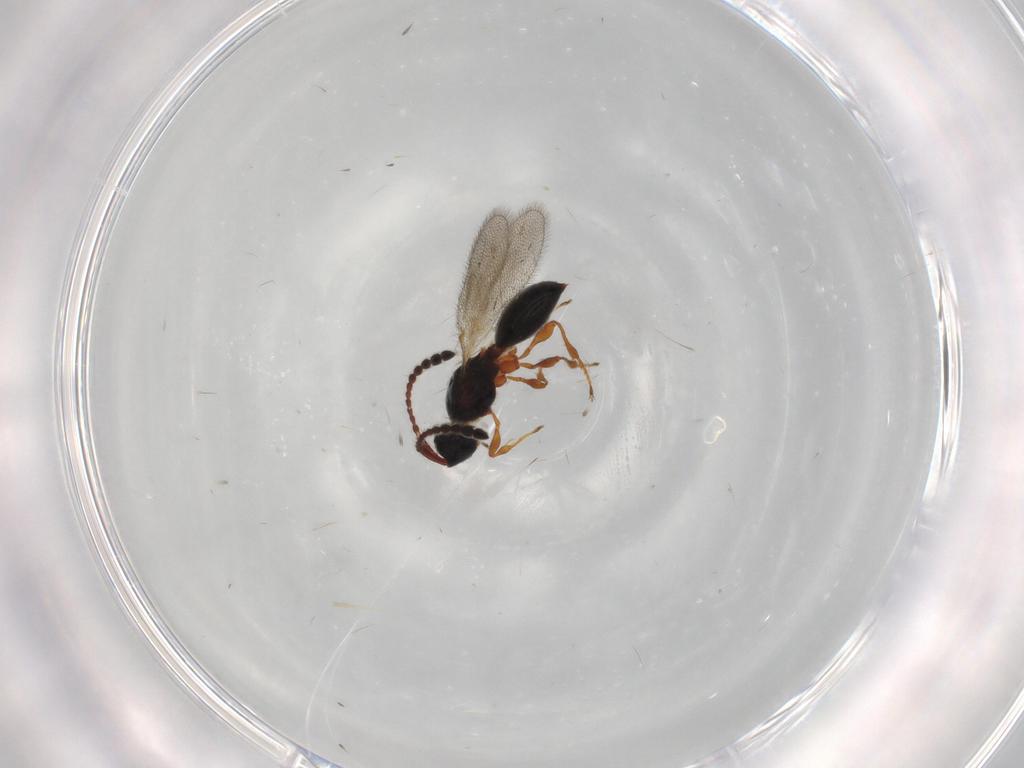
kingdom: Animalia
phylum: Arthropoda
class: Insecta
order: Hymenoptera
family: Diapriidae
